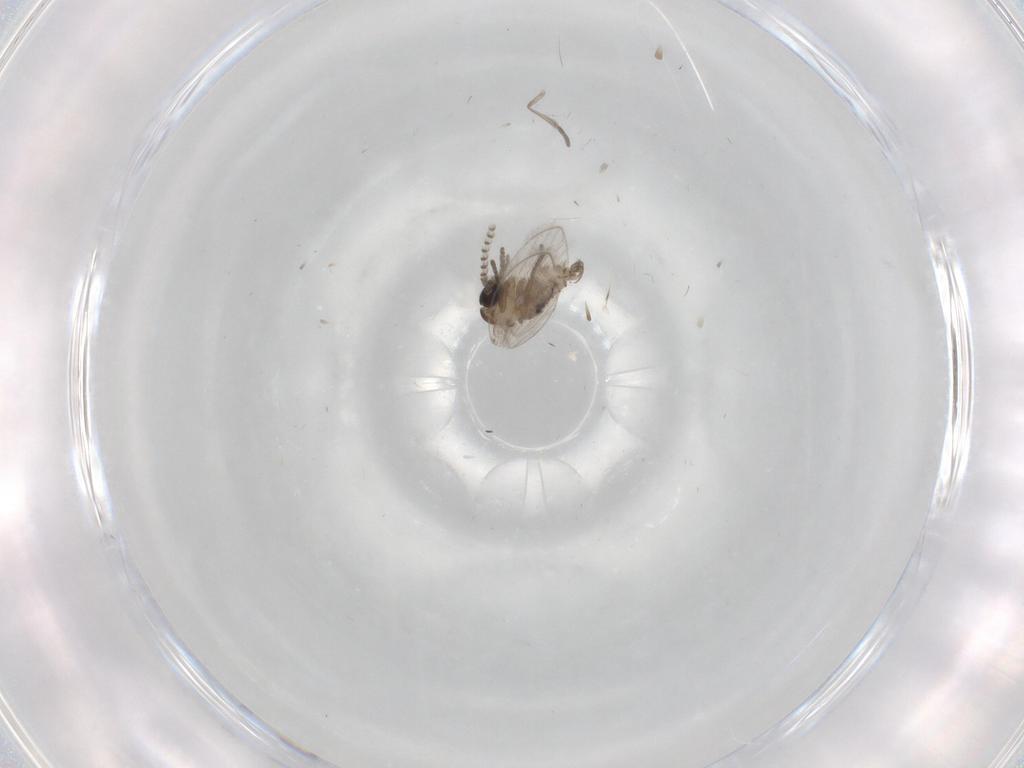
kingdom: Animalia
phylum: Arthropoda
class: Insecta
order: Diptera
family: Psychodidae
